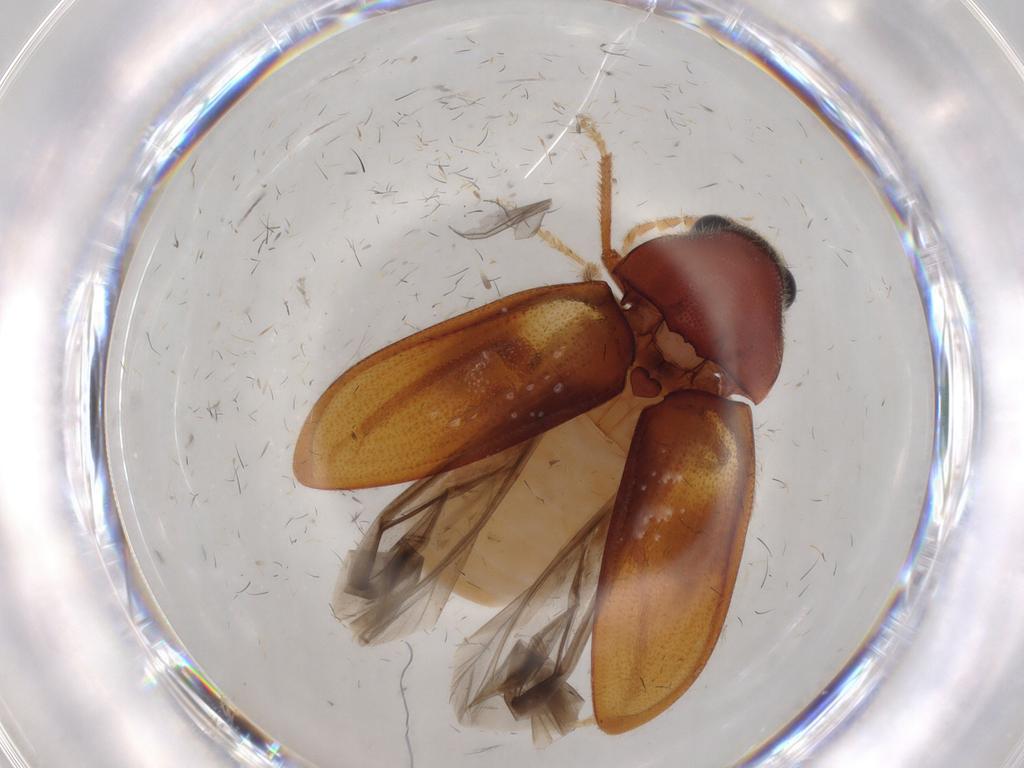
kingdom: Animalia
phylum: Arthropoda
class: Insecta
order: Coleoptera
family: Ptilodactylidae
